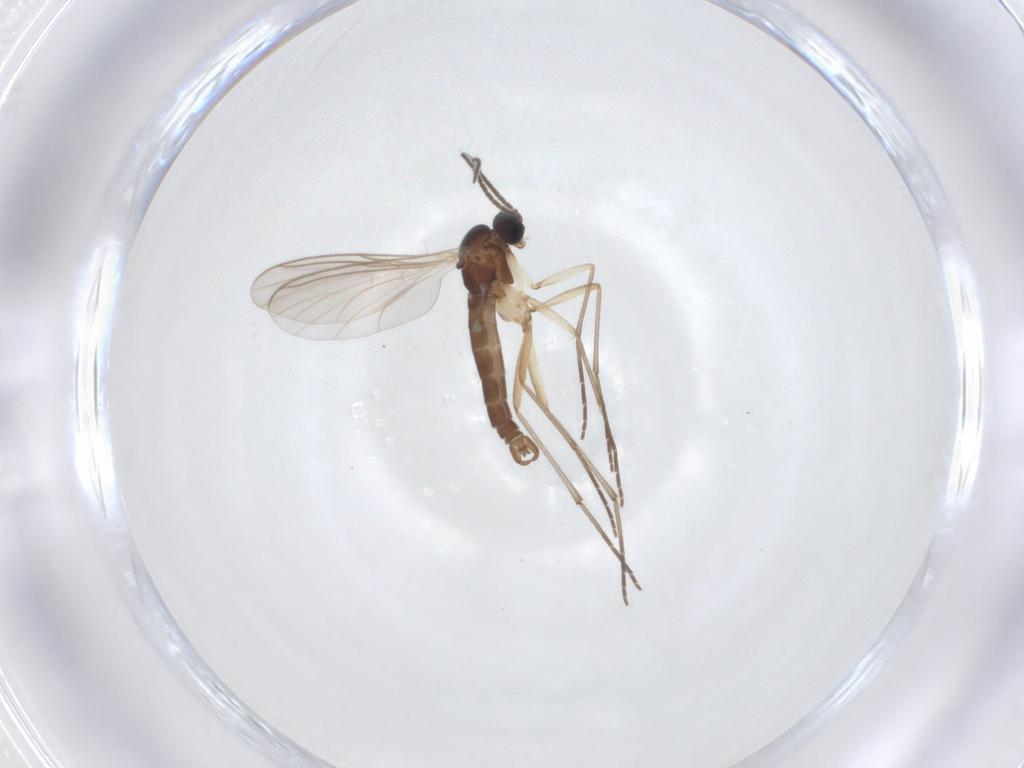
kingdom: Animalia
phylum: Arthropoda
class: Insecta
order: Diptera
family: Sciaridae
